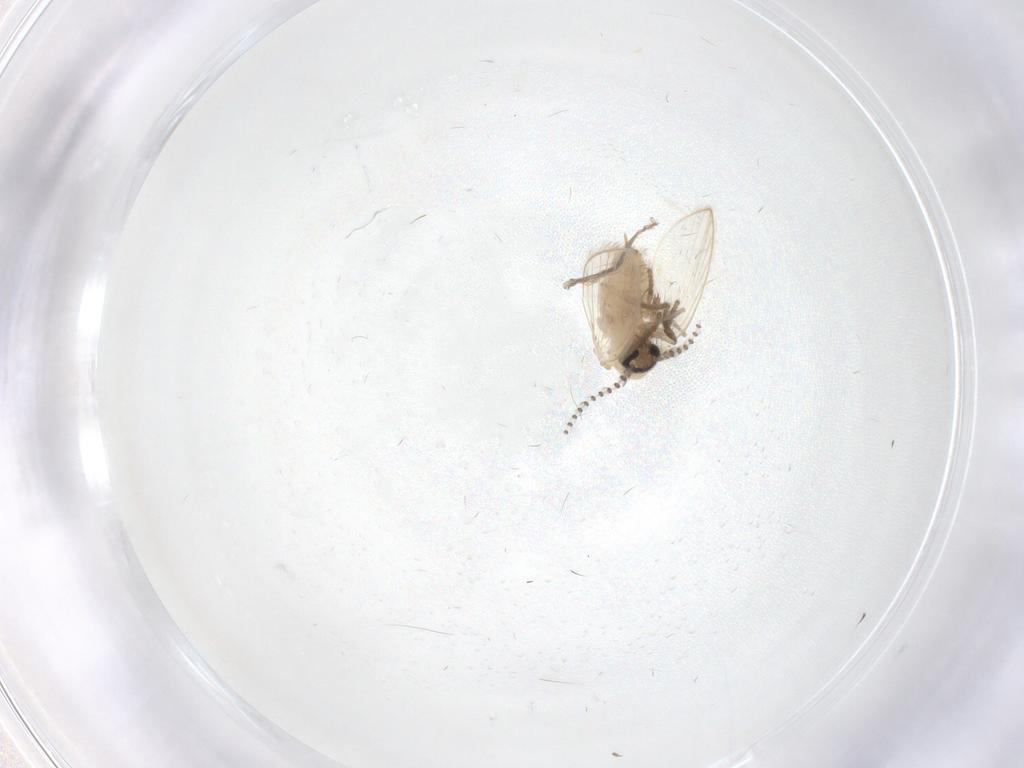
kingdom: Animalia
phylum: Arthropoda
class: Insecta
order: Diptera
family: Psychodidae
